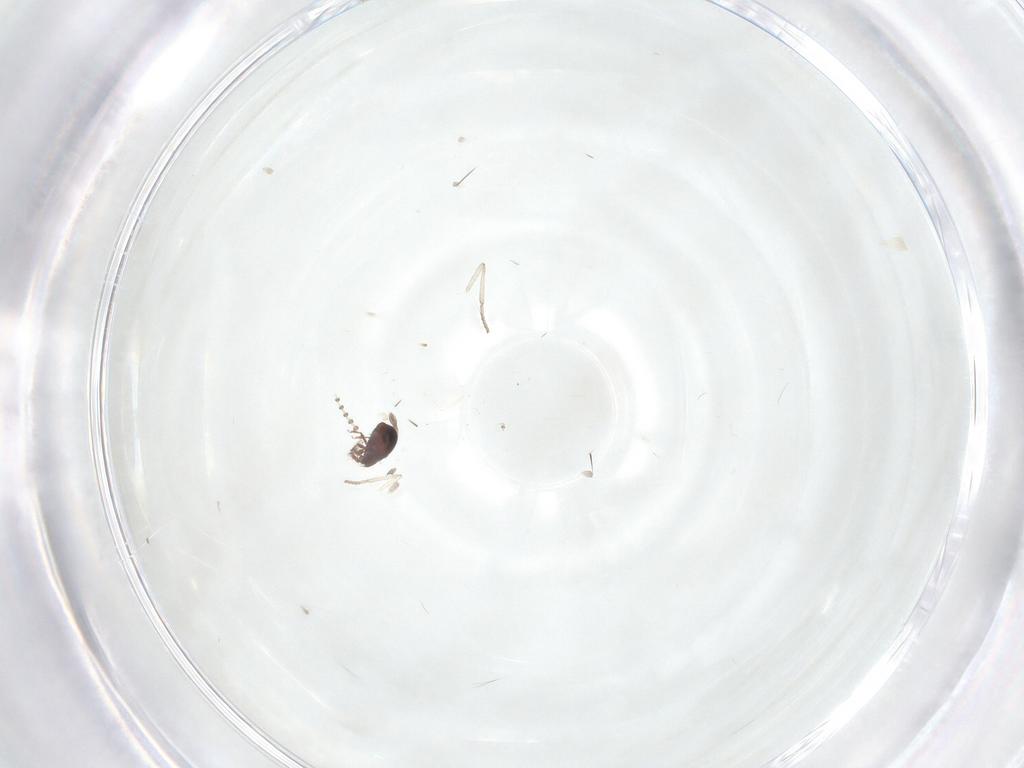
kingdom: Animalia
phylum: Arthropoda
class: Insecta
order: Diptera
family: Psychodidae
